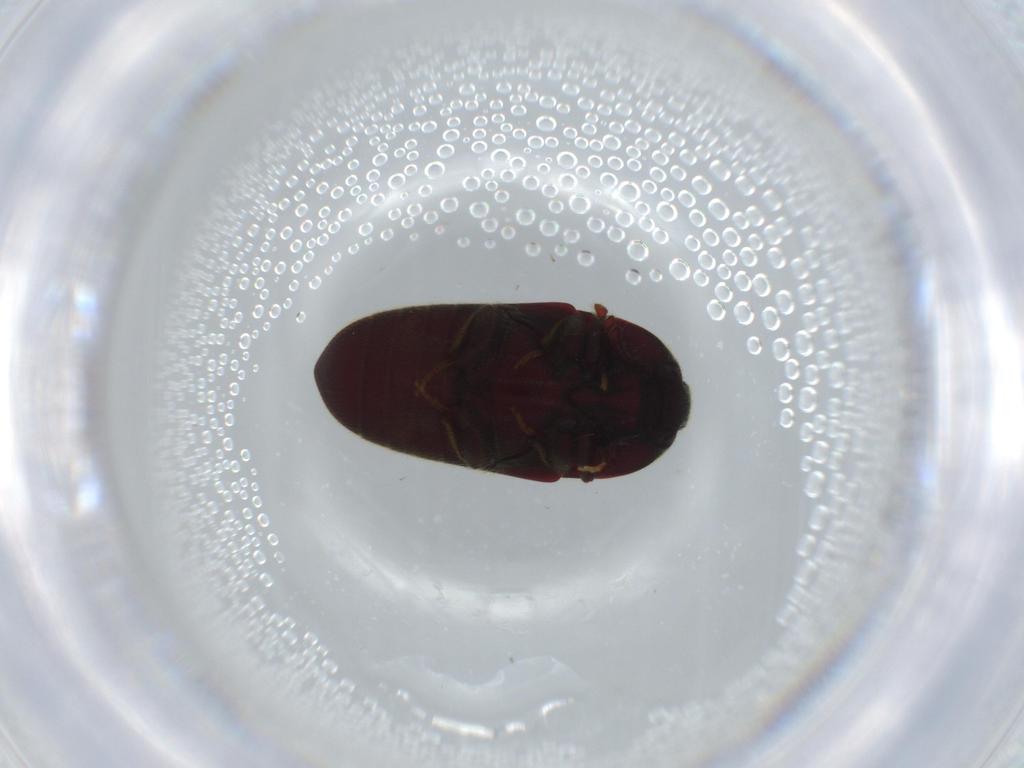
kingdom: Animalia
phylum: Arthropoda
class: Insecta
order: Coleoptera
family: Throscidae
